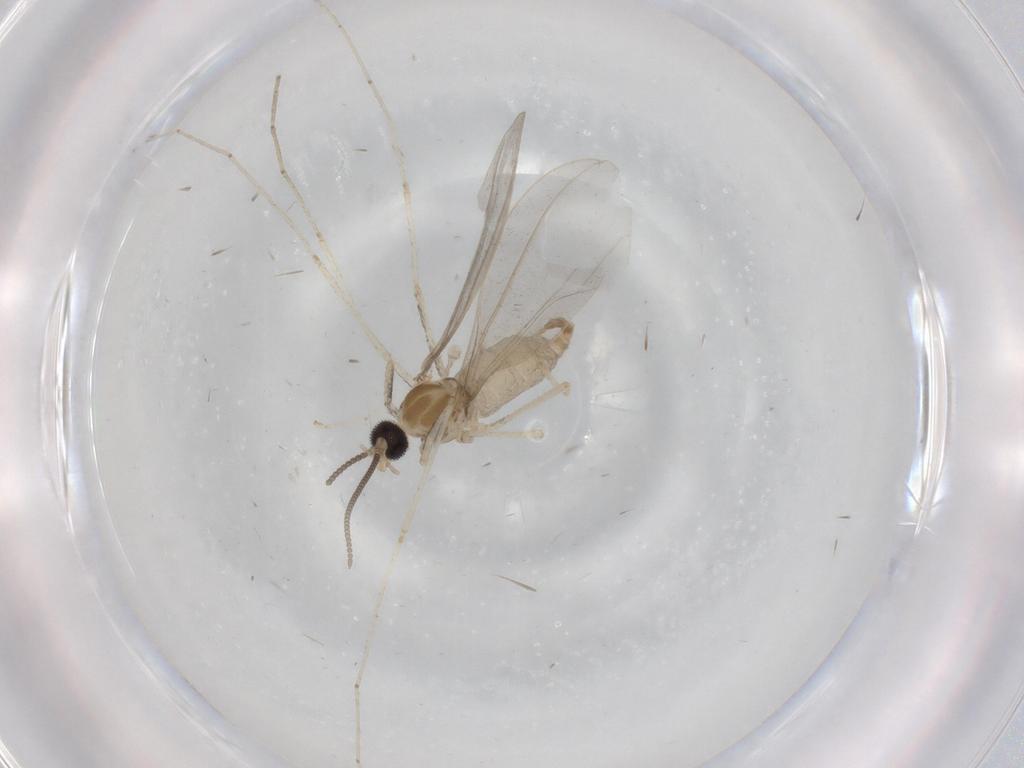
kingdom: Animalia
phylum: Arthropoda
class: Insecta
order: Diptera
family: Cecidomyiidae
